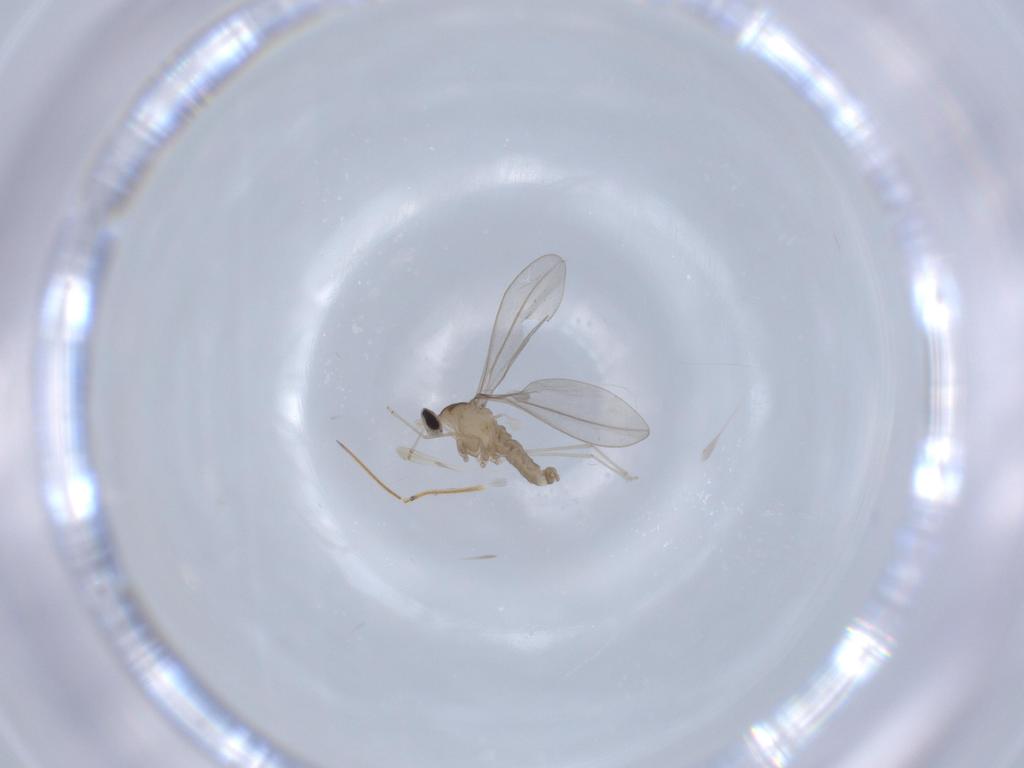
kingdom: Animalia
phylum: Arthropoda
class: Insecta
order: Diptera
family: Cecidomyiidae
